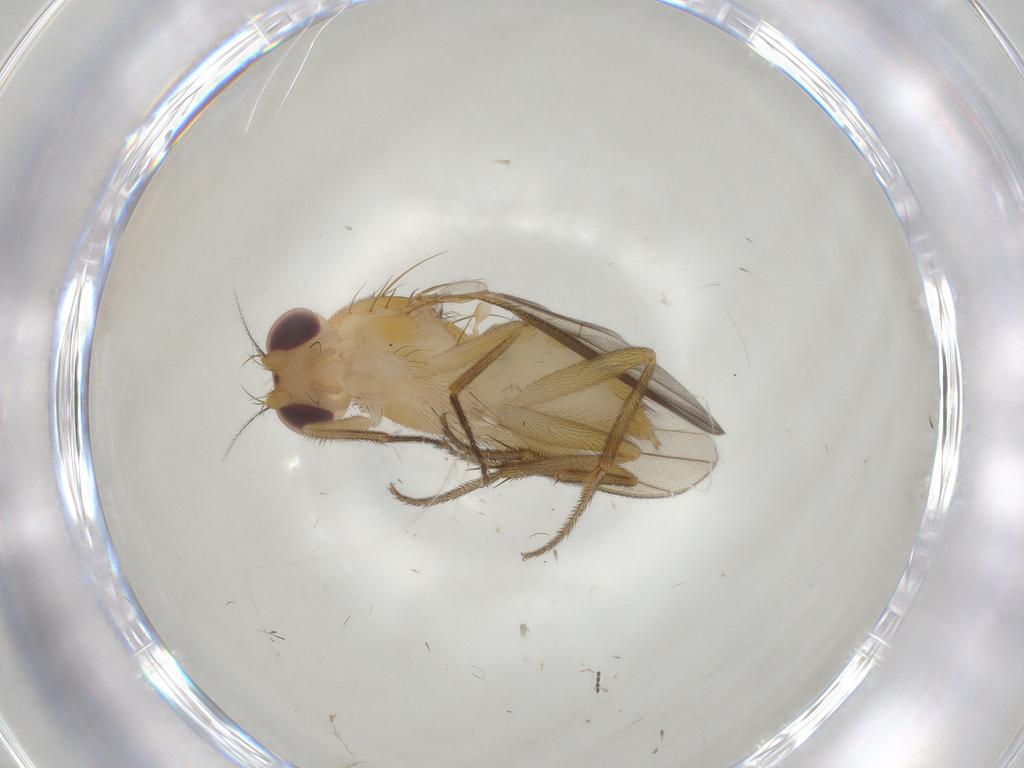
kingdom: Animalia
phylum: Arthropoda
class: Insecta
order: Diptera
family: Clusiidae
